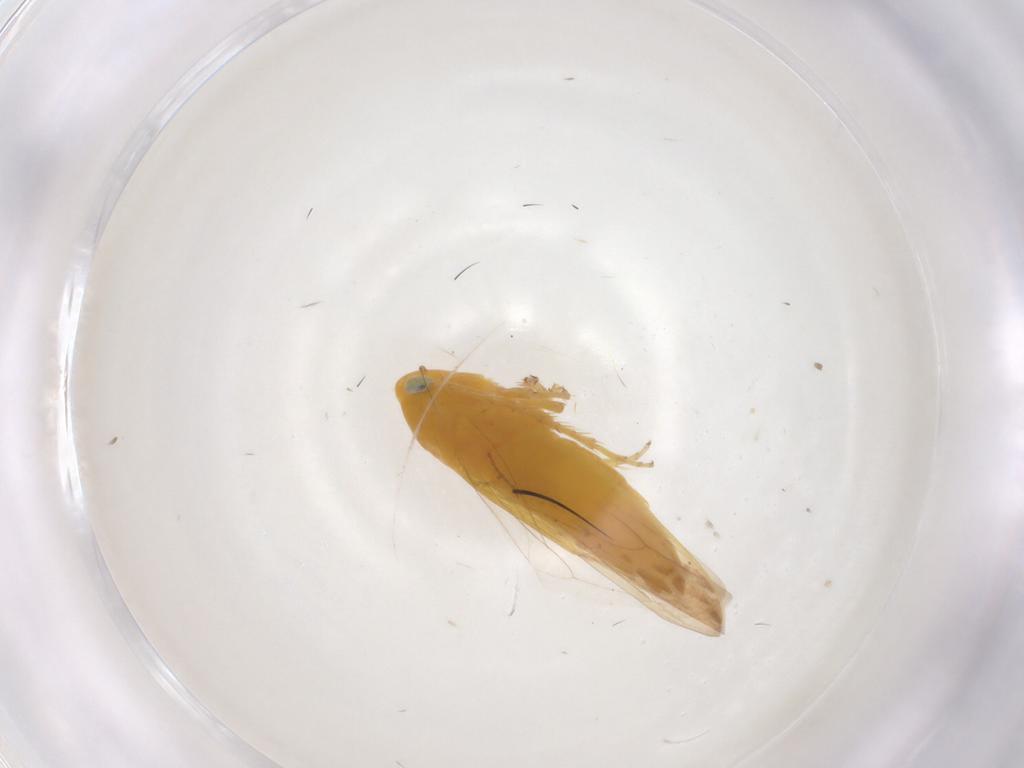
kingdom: Animalia
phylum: Arthropoda
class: Insecta
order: Hemiptera
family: Cicadellidae
